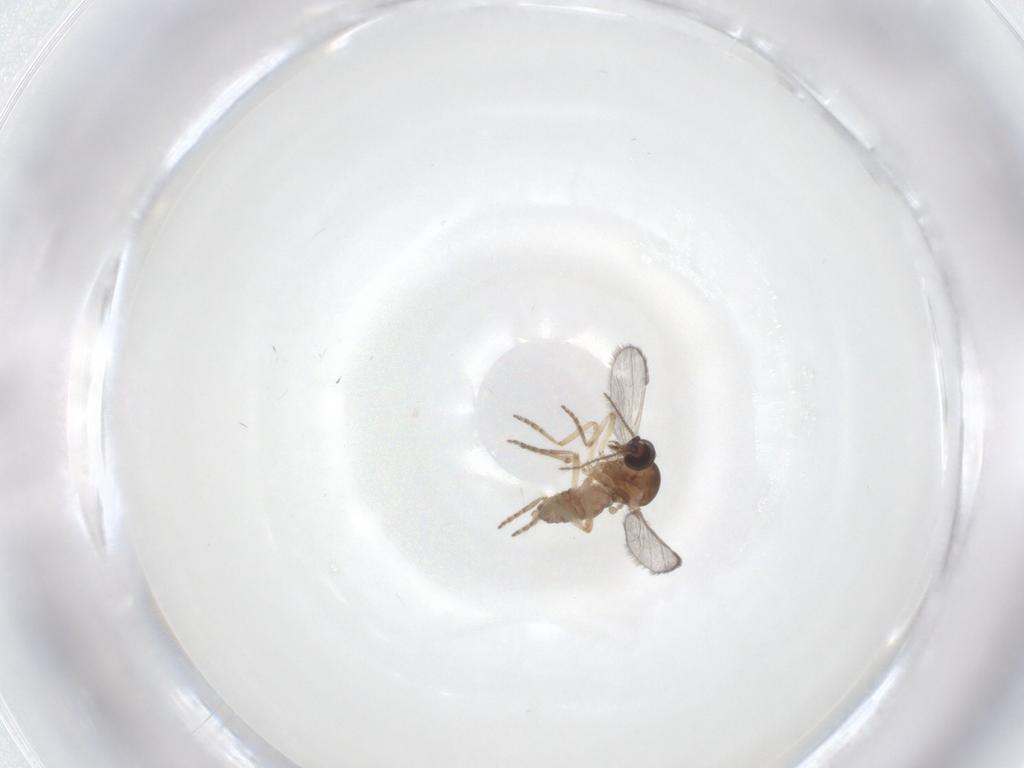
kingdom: Animalia
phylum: Arthropoda
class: Insecta
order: Diptera
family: Ceratopogonidae
